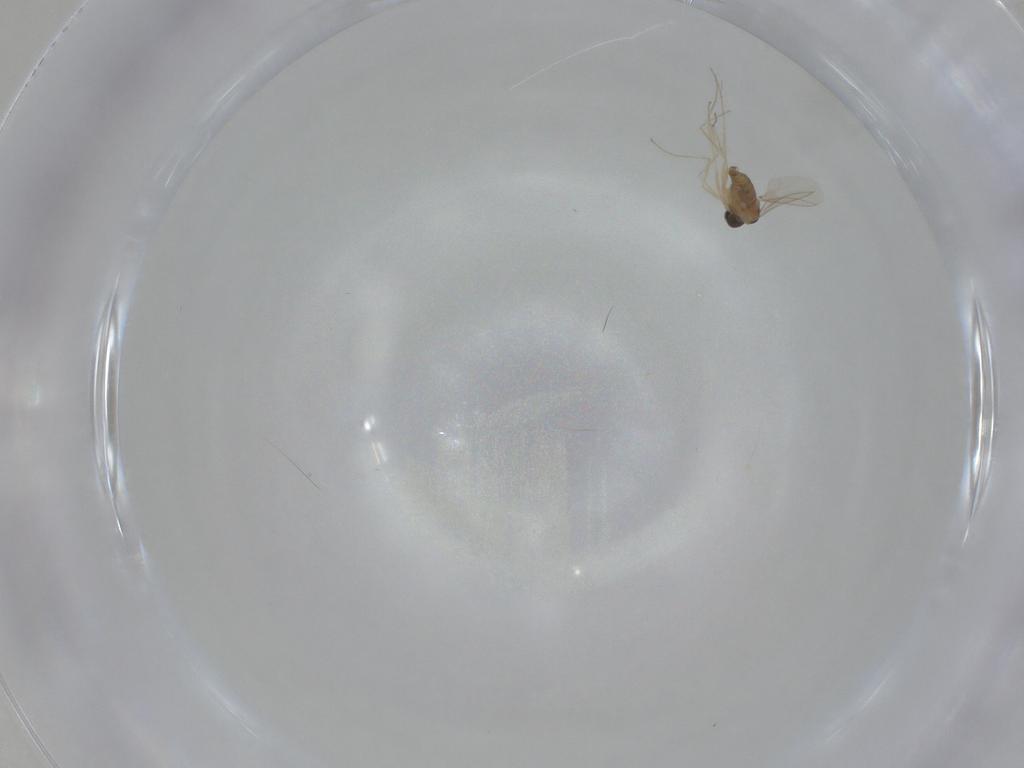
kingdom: Animalia
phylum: Arthropoda
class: Insecta
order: Diptera
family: Cecidomyiidae
